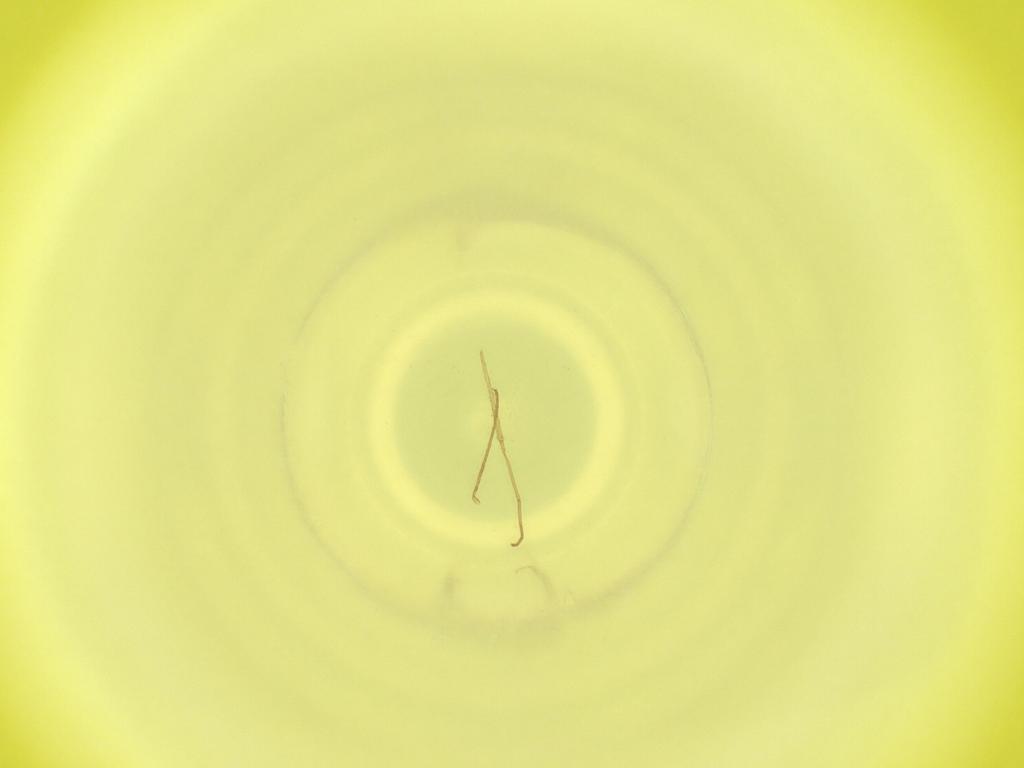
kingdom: Animalia
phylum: Arthropoda
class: Insecta
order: Diptera
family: Cecidomyiidae
